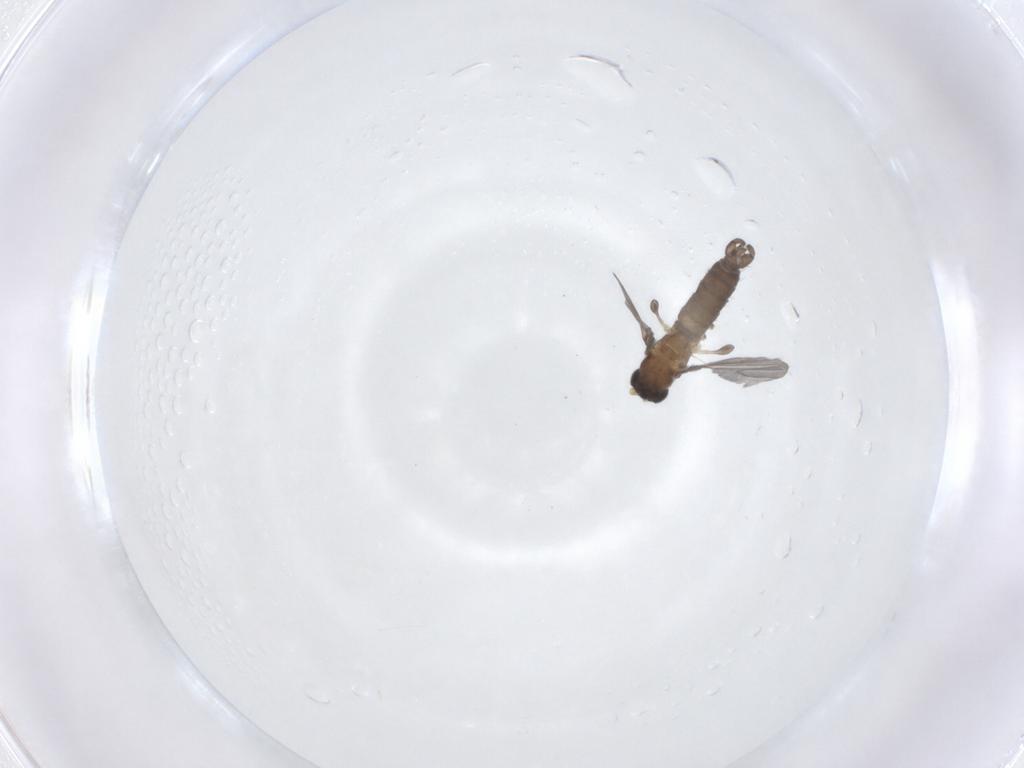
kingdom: Animalia
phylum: Arthropoda
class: Insecta
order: Diptera
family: Sciaridae
